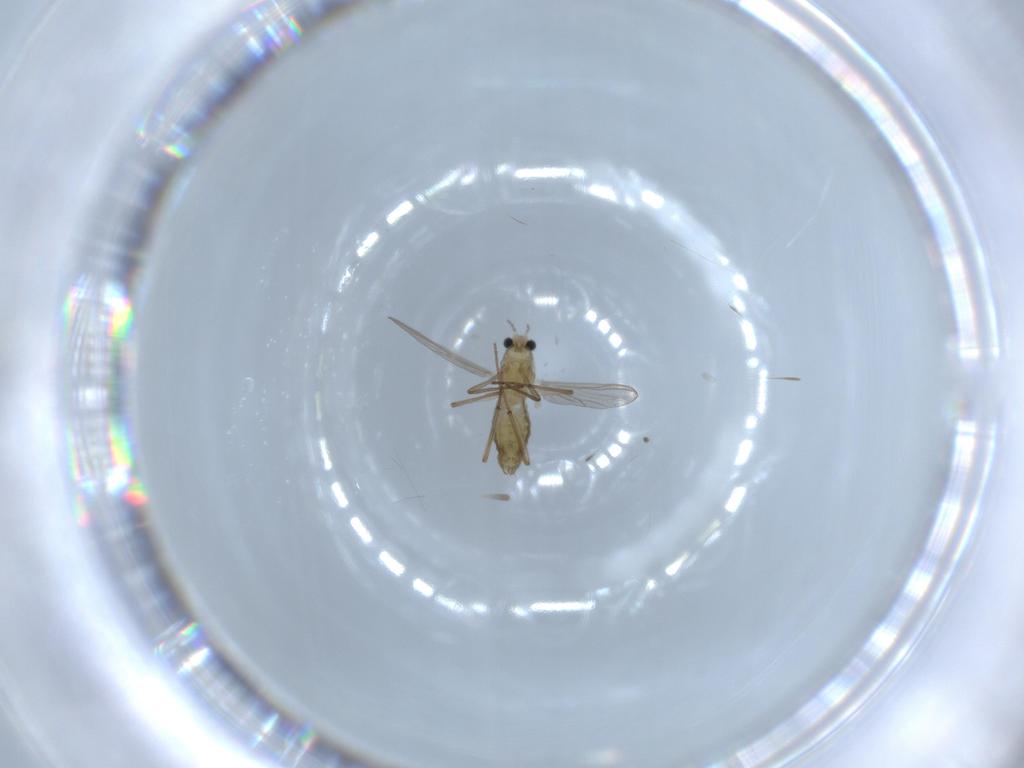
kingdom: Animalia
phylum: Arthropoda
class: Insecta
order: Diptera
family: Chironomidae
